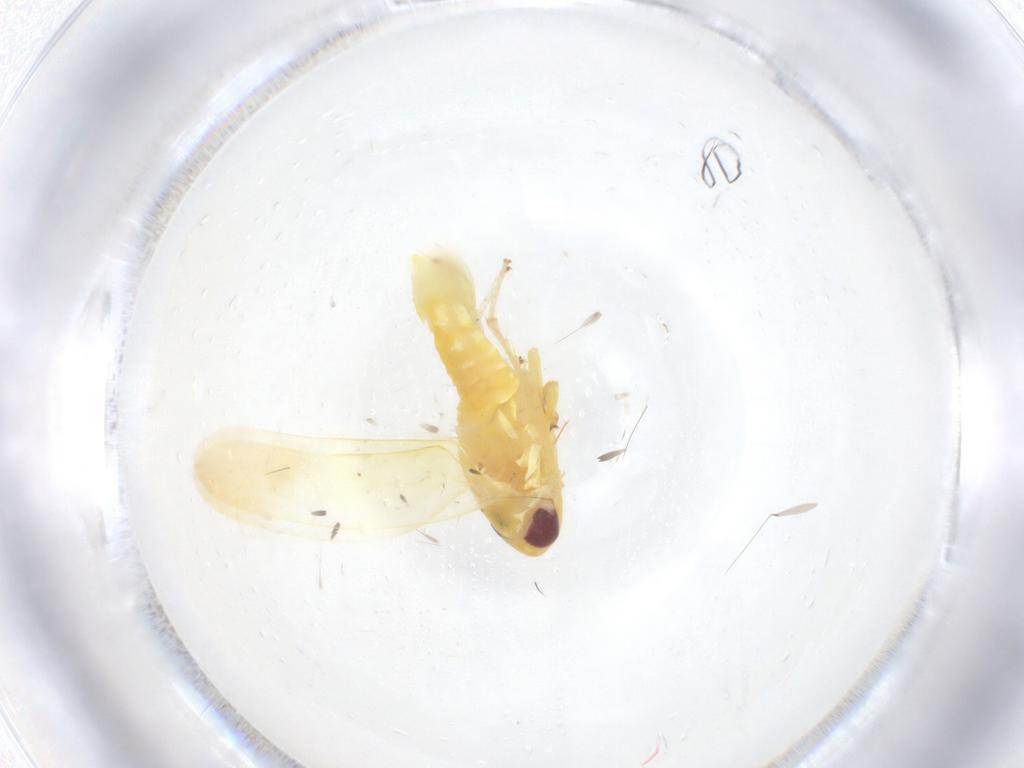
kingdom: Animalia
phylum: Arthropoda
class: Insecta
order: Hemiptera
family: Cicadellidae
